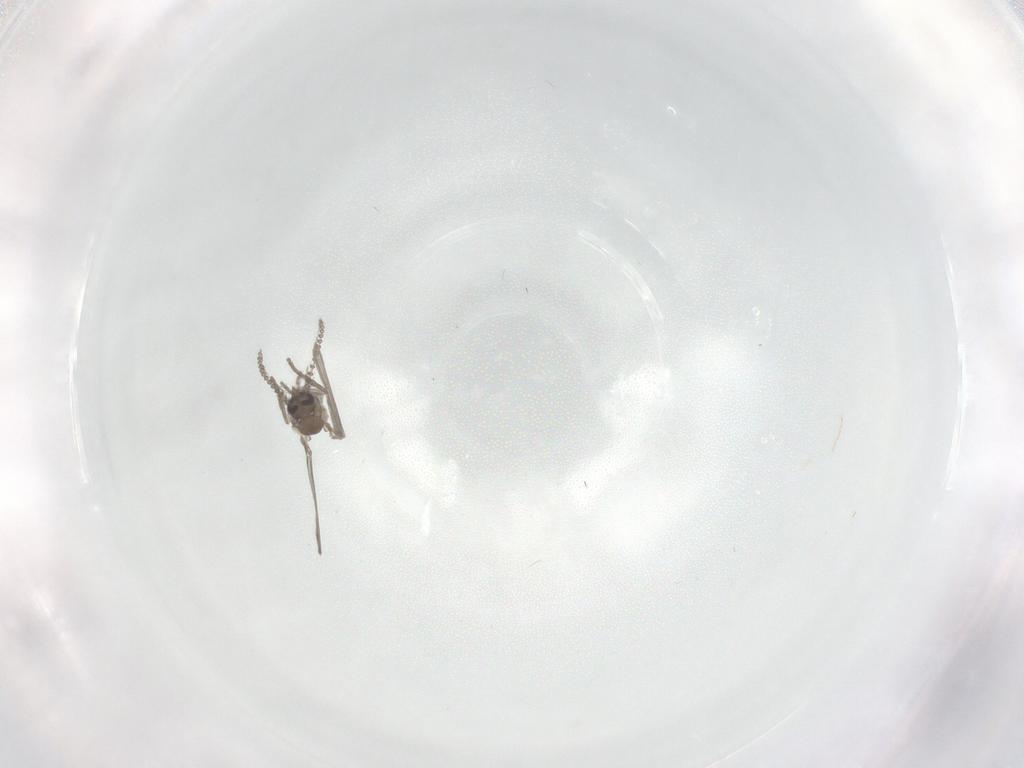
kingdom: Animalia
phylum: Arthropoda
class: Insecta
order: Diptera
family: Psychodidae
